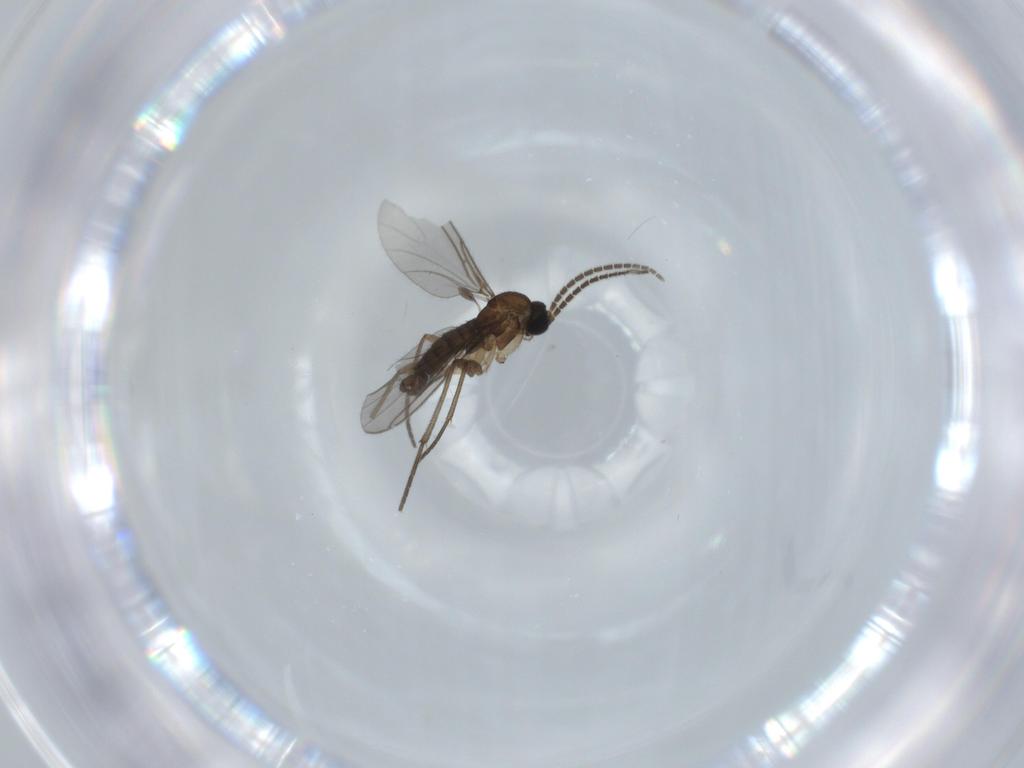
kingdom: Animalia
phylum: Arthropoda
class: Insecta
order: Diptera
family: Sciaridae
